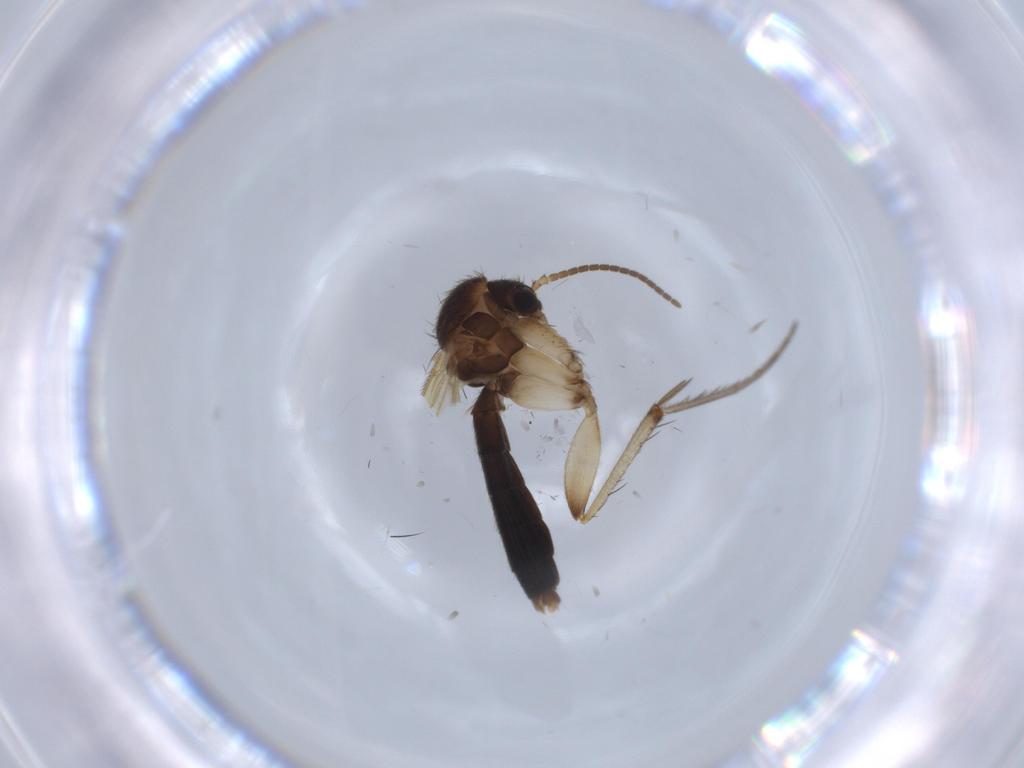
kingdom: Animalia
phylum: Arthropoda
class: Insecta
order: Diptera
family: Muscidae
